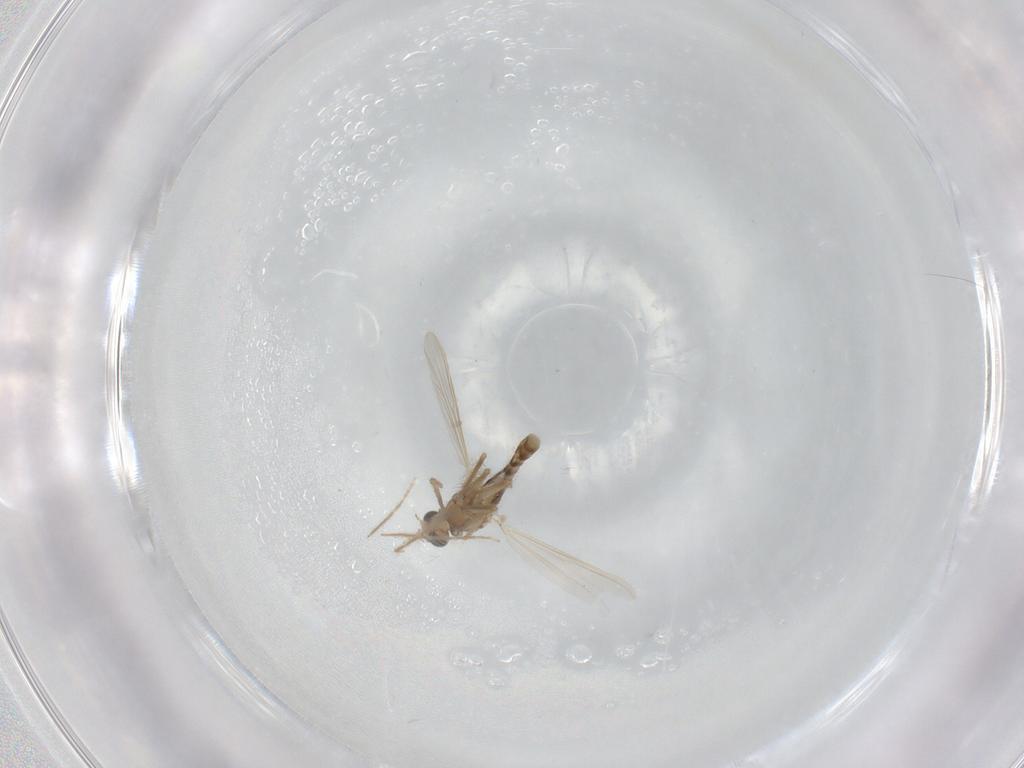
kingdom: Animalia
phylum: Arthropoda
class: Insecta
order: Diptera
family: Chironomidae
